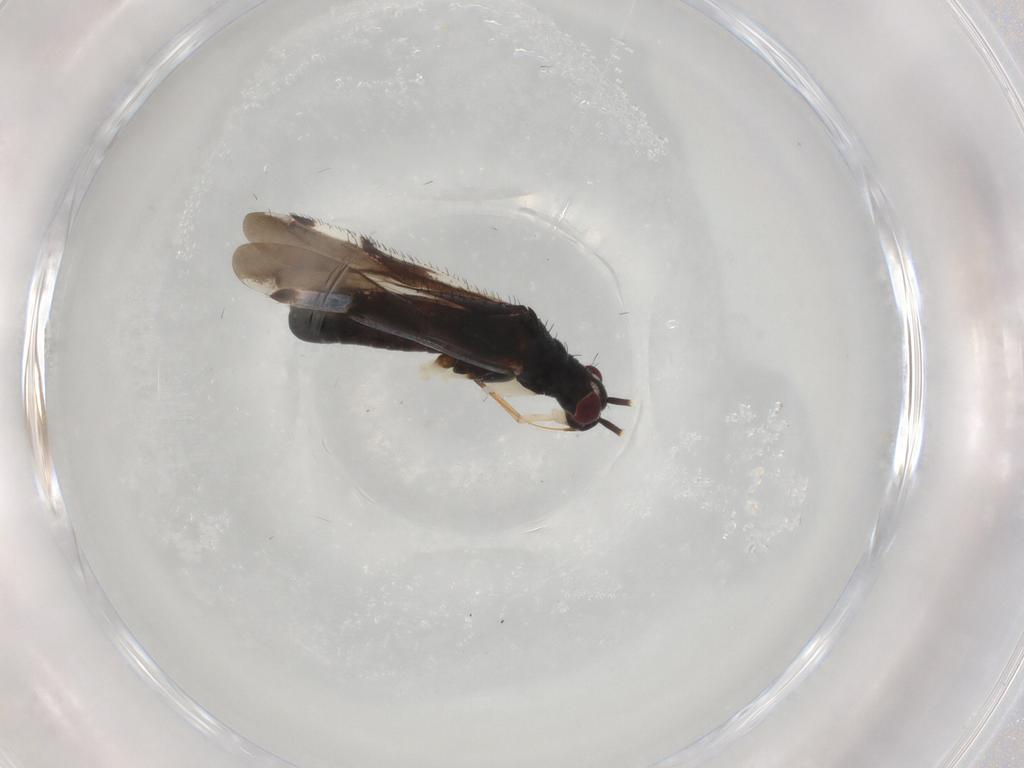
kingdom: Animalia
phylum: Arthropoda
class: Insecta
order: Hemiptera
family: Miridae
